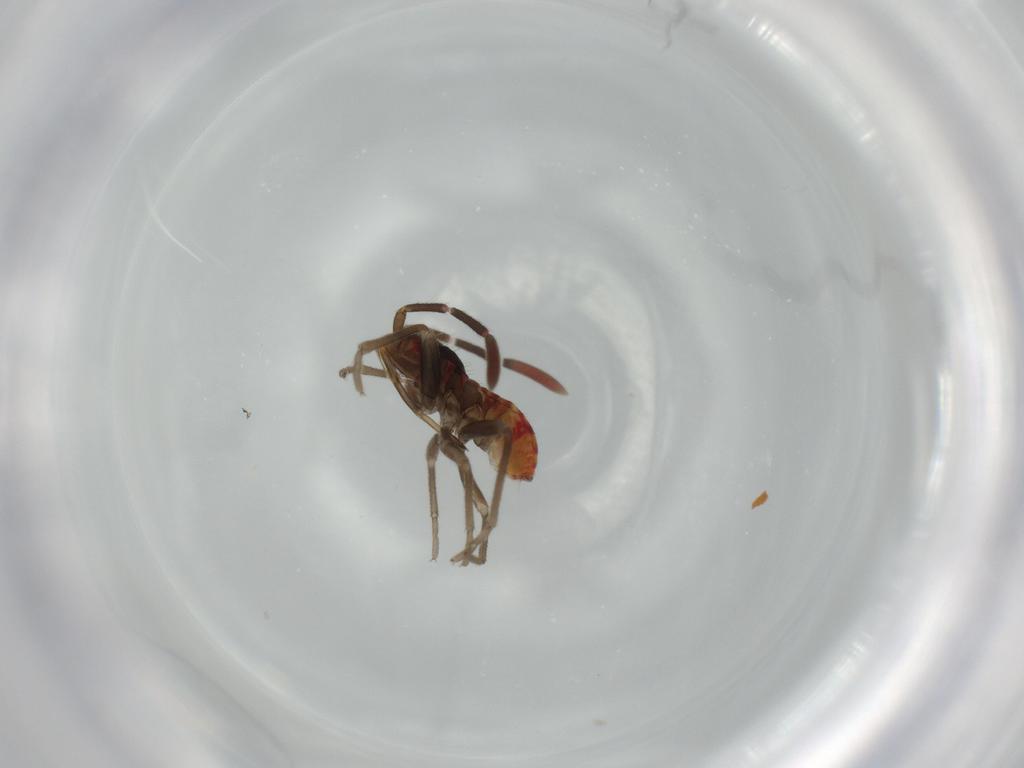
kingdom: Animalia
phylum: Arthropoda
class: Insecta
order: Hemiptera
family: Rhyparochromidae
